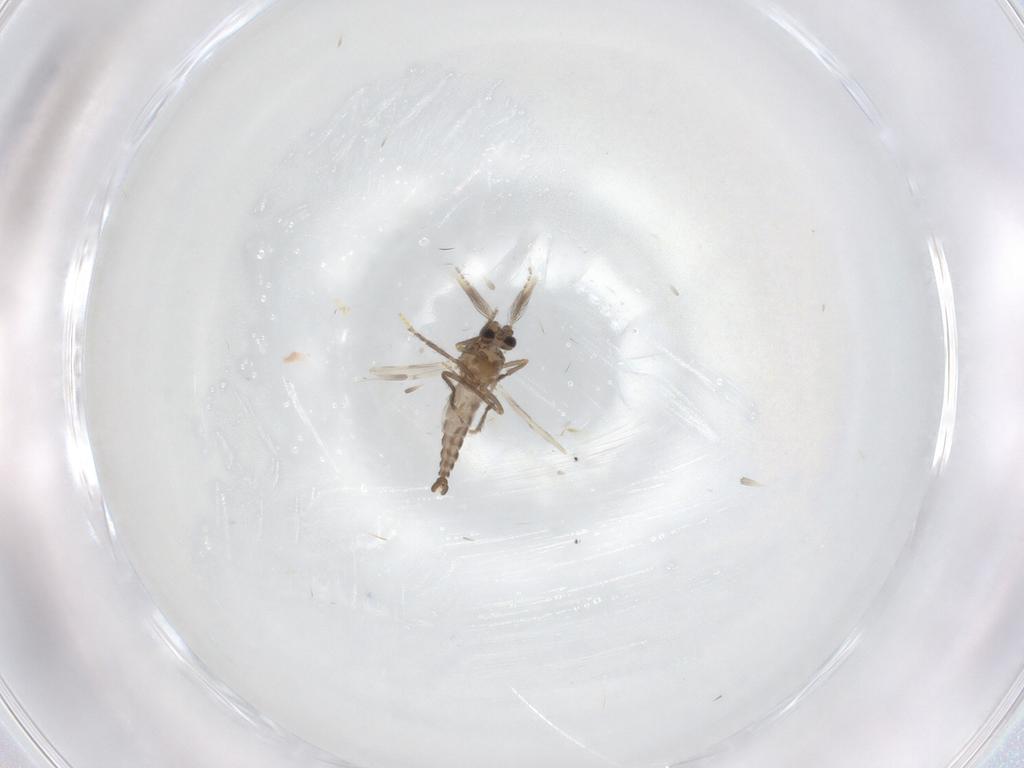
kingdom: Animalia
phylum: Arthropoda
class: Insecta
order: Diptera
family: Ceratopogonidae
